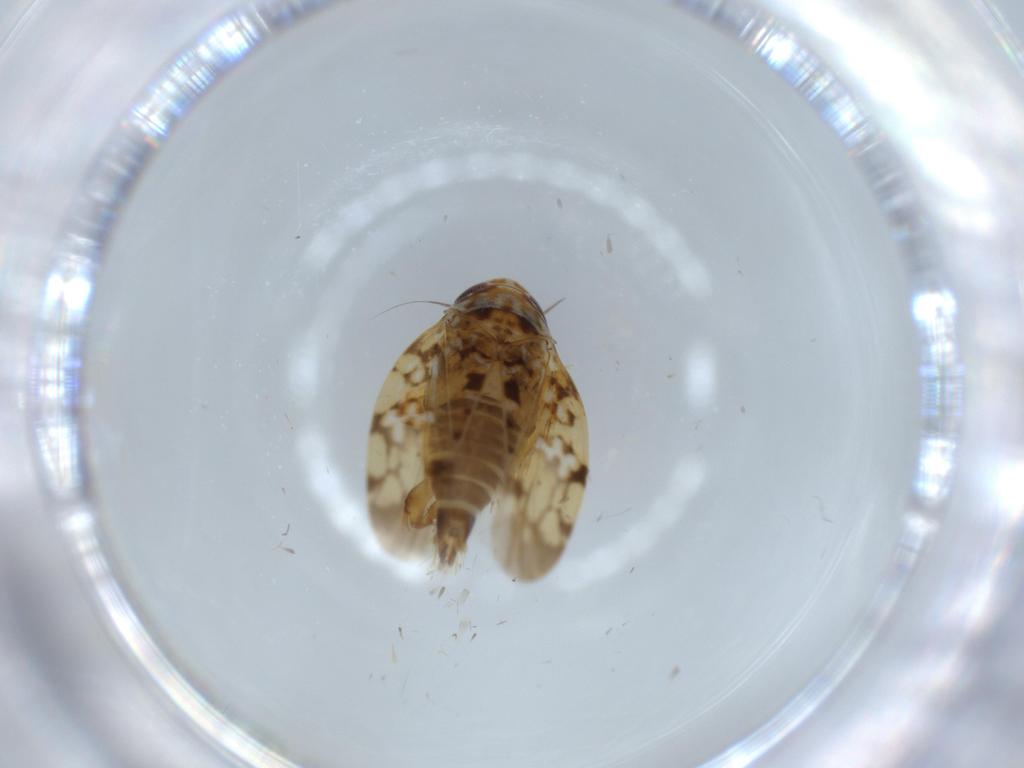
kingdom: Animalia
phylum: Arthropoda
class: Insecta
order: Hemiptera
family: Cicadellidae
